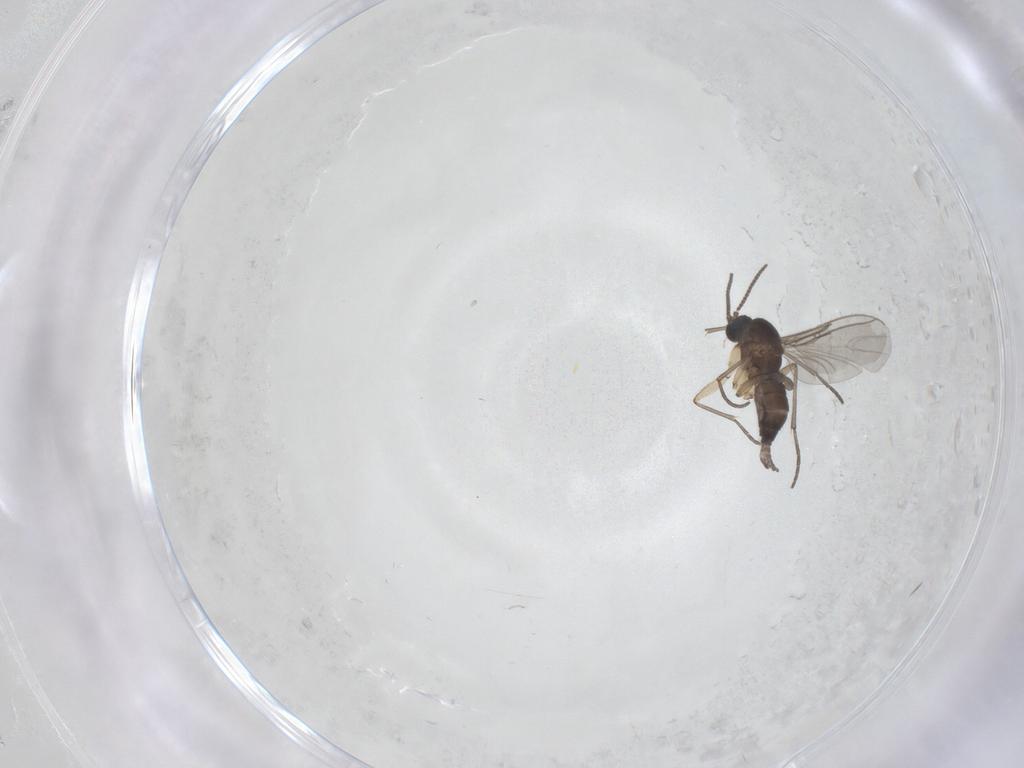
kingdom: Animalia
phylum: Arthropoda
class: Insecta
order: Diptera
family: Sciaridae
